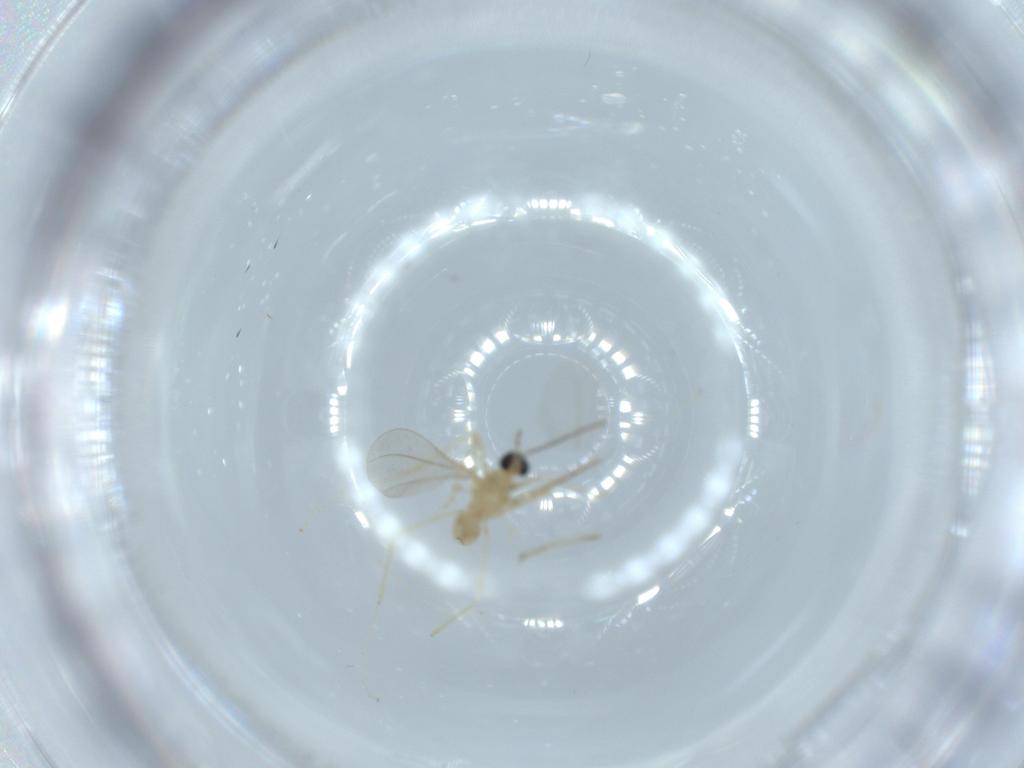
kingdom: Animalia
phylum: Arthropoda
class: Insecta
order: Diptera
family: Cecidomyiidae
